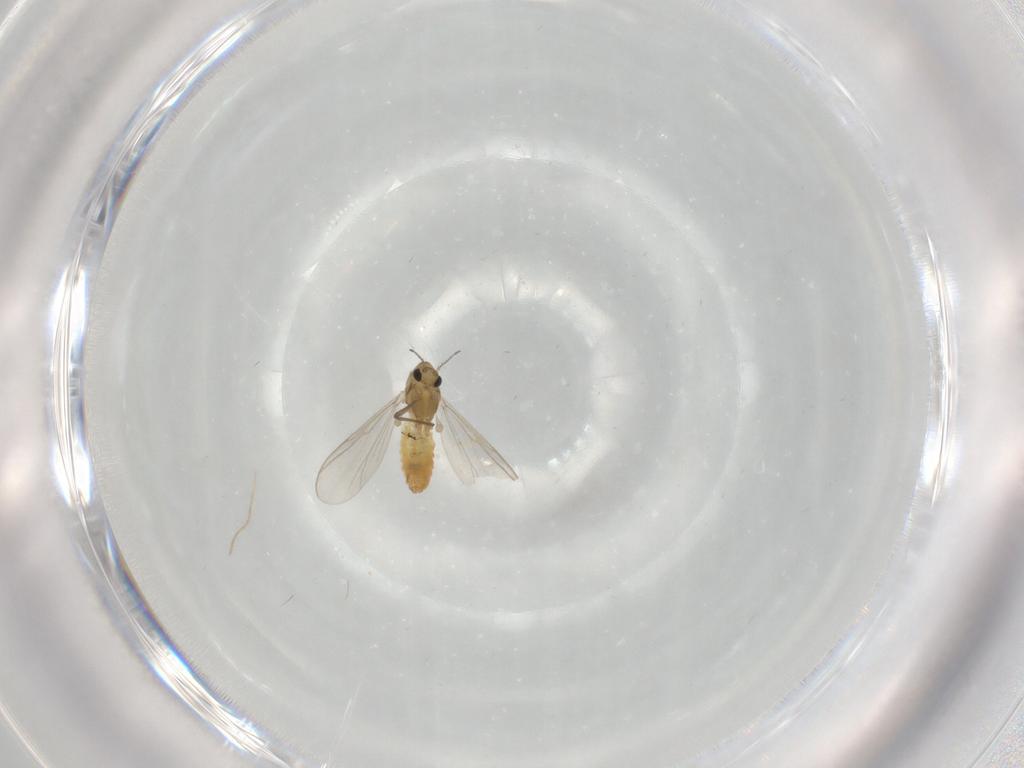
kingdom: Animalia
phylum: Arthropoda
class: Insecta
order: Diptera
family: Chironomidae
